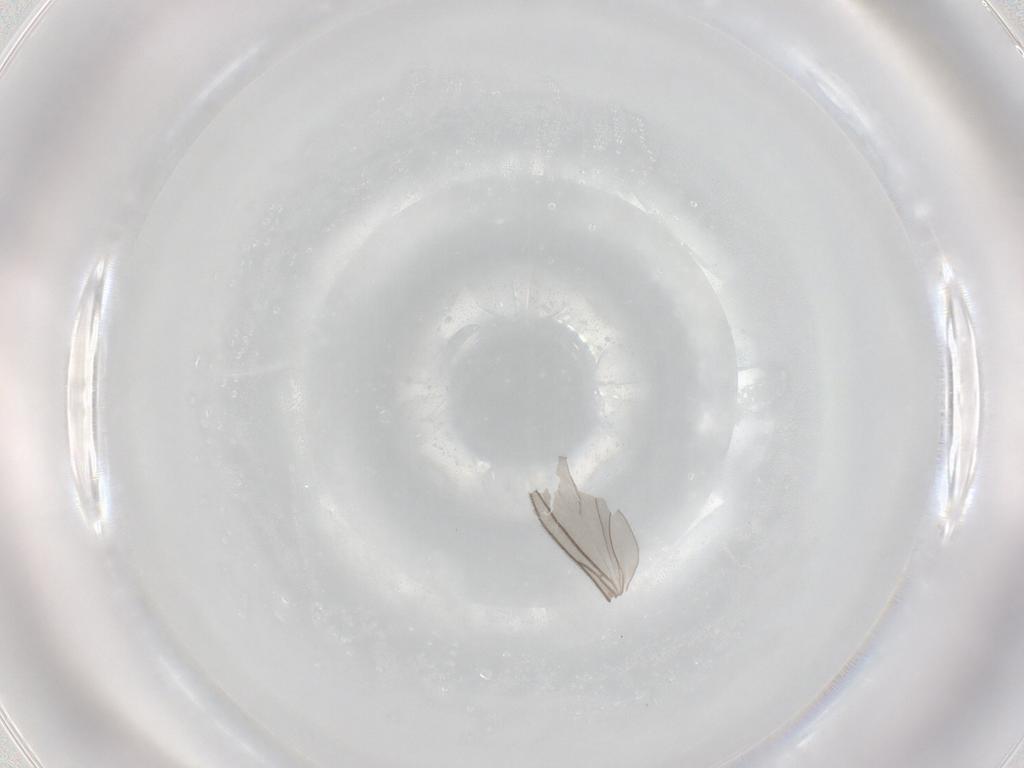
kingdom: Animalia
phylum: Arthropoda
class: Insecta
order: Diptera
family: Sciaridae
